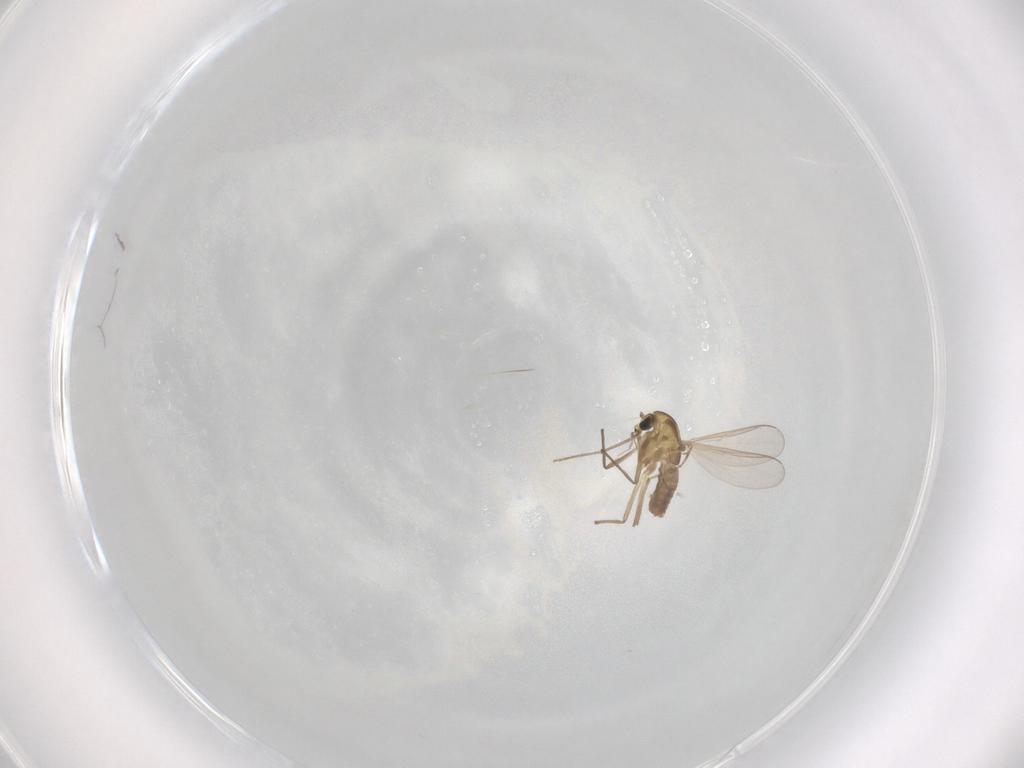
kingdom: Animalia
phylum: Arthropoda
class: Insecta
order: Diptera
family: Chironomidae
